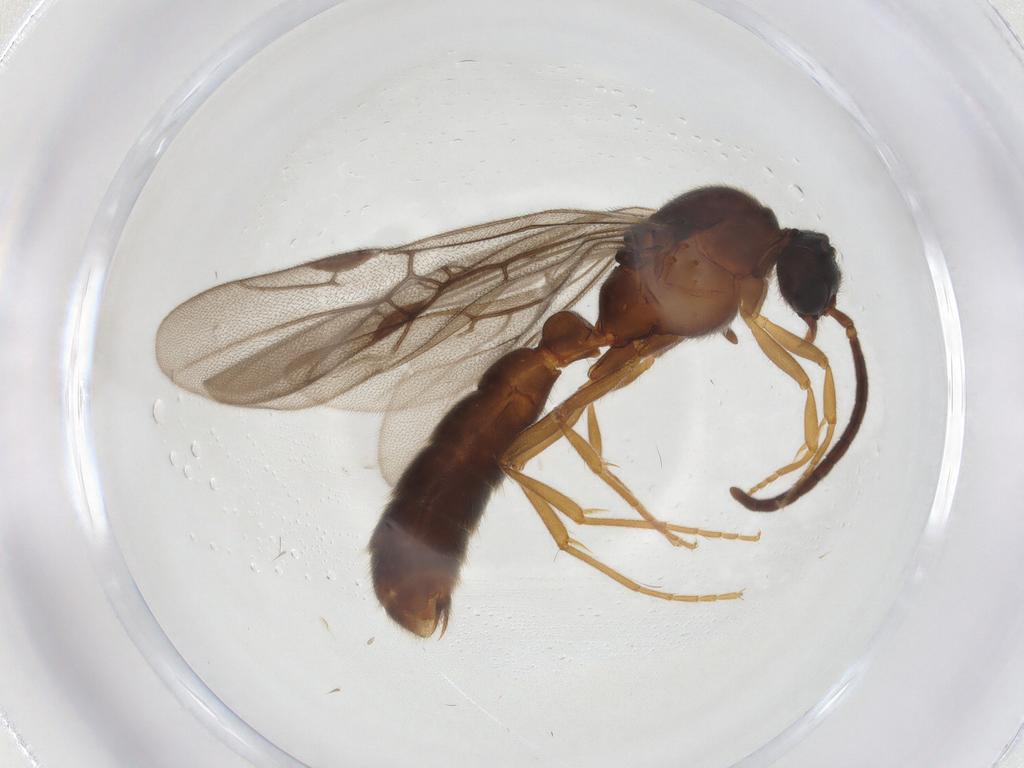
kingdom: Animalia
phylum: Arthropoda
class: Insecta
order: Hymenoptera
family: Formicidae
